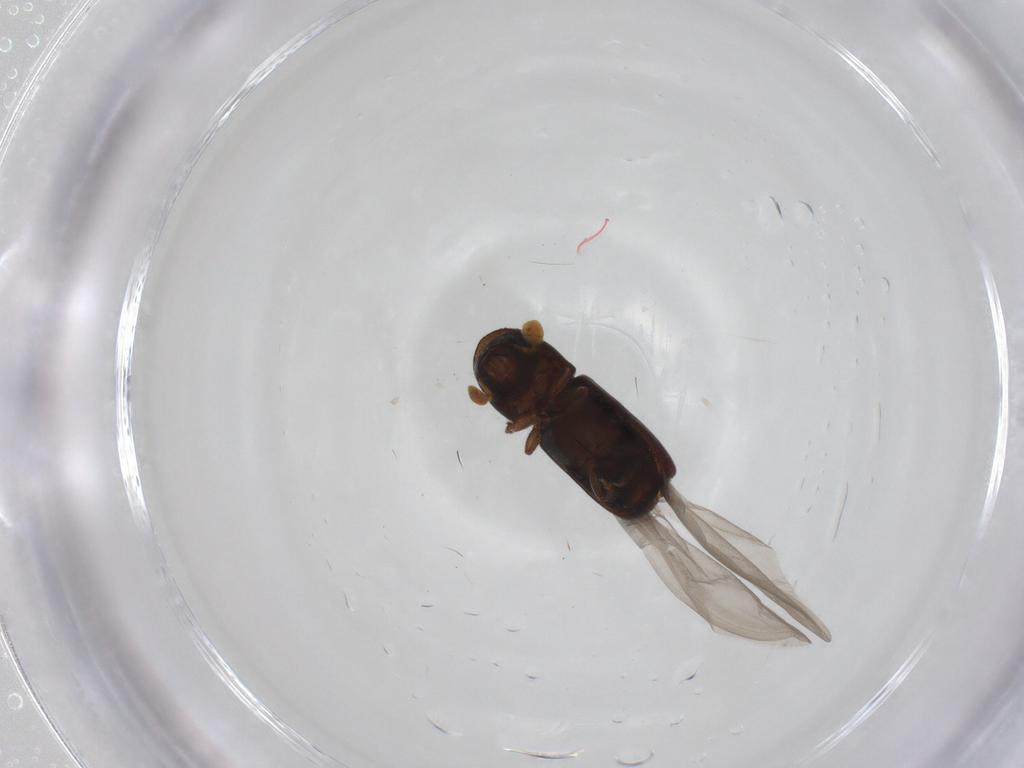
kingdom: Animalia
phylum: Arthropoda
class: Insecta
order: Coleoptera
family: Curculionidae
